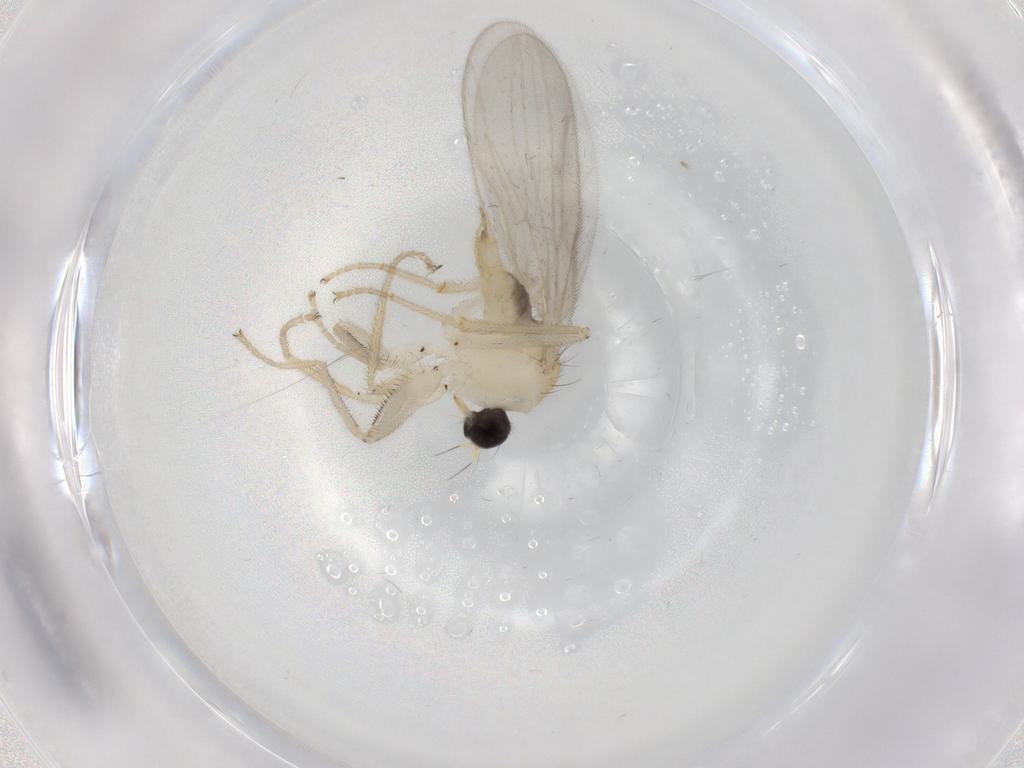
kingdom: Animalia
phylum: Arthropoda
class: Insecta
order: Diptera
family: Hybotidae
